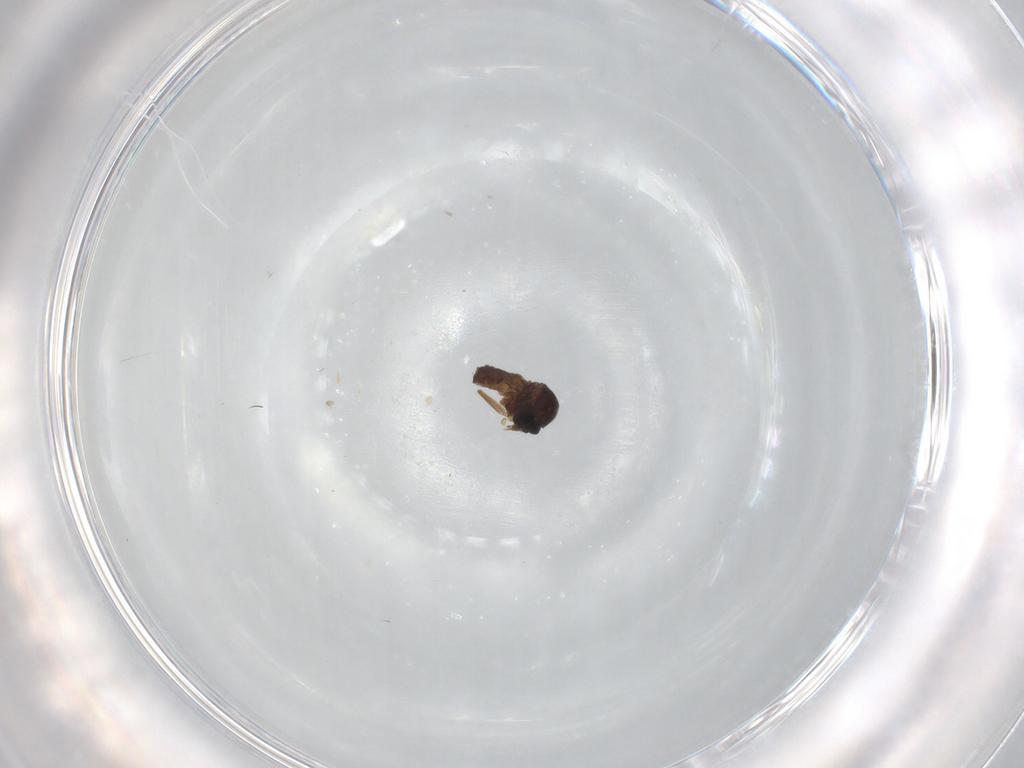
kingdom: Animalia
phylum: Arthropoda
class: Insecta
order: Diptera
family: Ceratopogonidae
